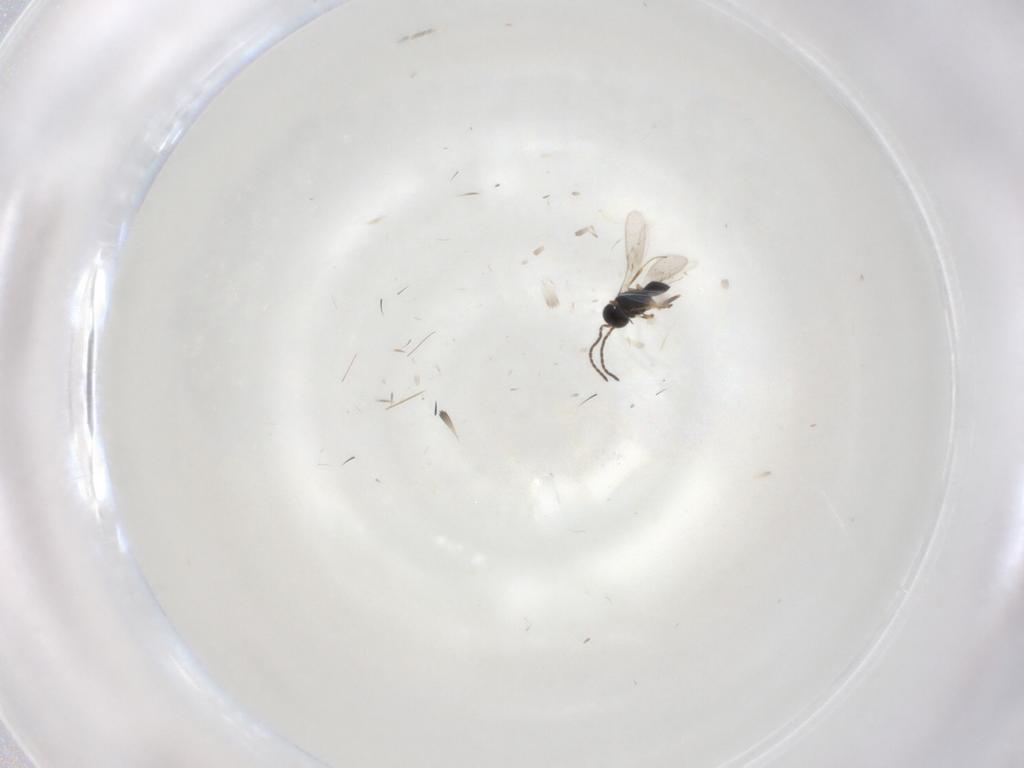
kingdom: Animalia
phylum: Arthropoda
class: Insecta
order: Hymenoptera
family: Scelionidae
